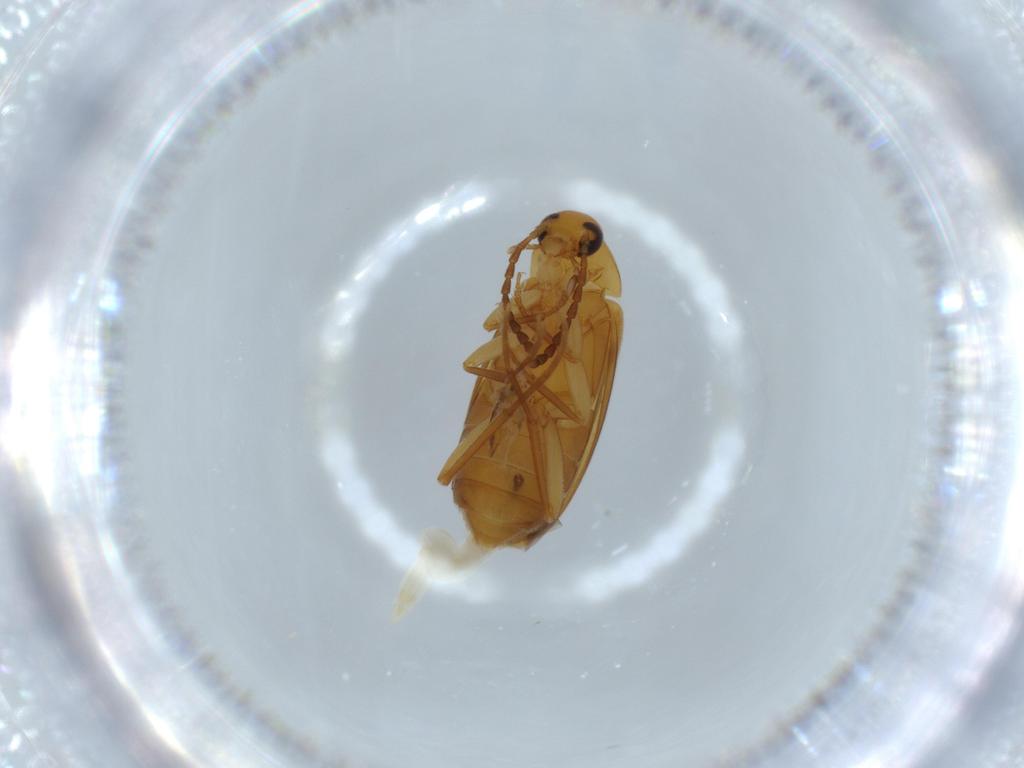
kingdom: Animalia
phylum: Arthropoda
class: Insecta
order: Coleoptera
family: Scraptiidae
